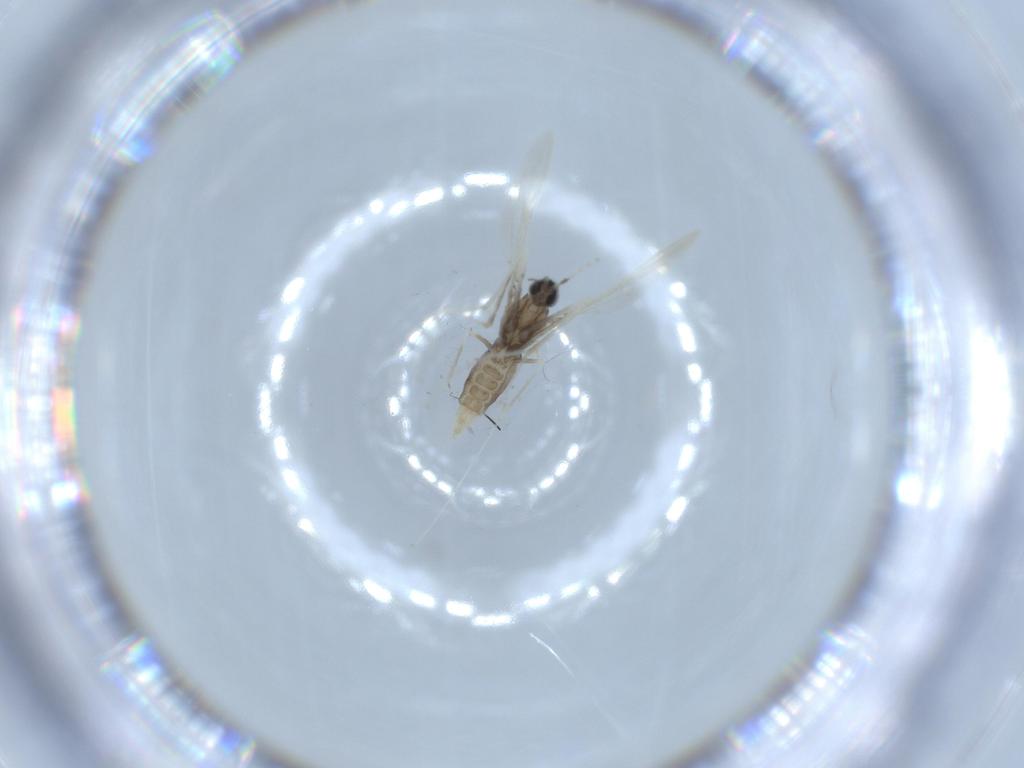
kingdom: Animalia
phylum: Arthropoda
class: Insecta
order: Diptera
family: Cecidomyiidae
